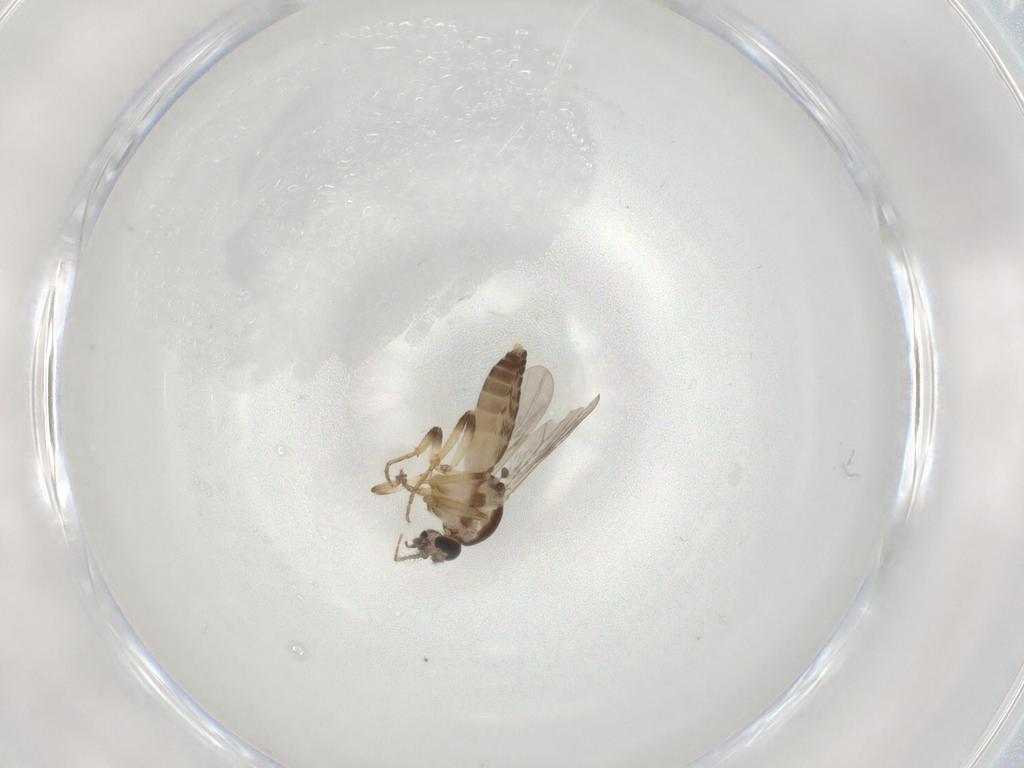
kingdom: Animalia
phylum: Arthropoda
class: Insecta
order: Diptera
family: Ceratopogonidae
